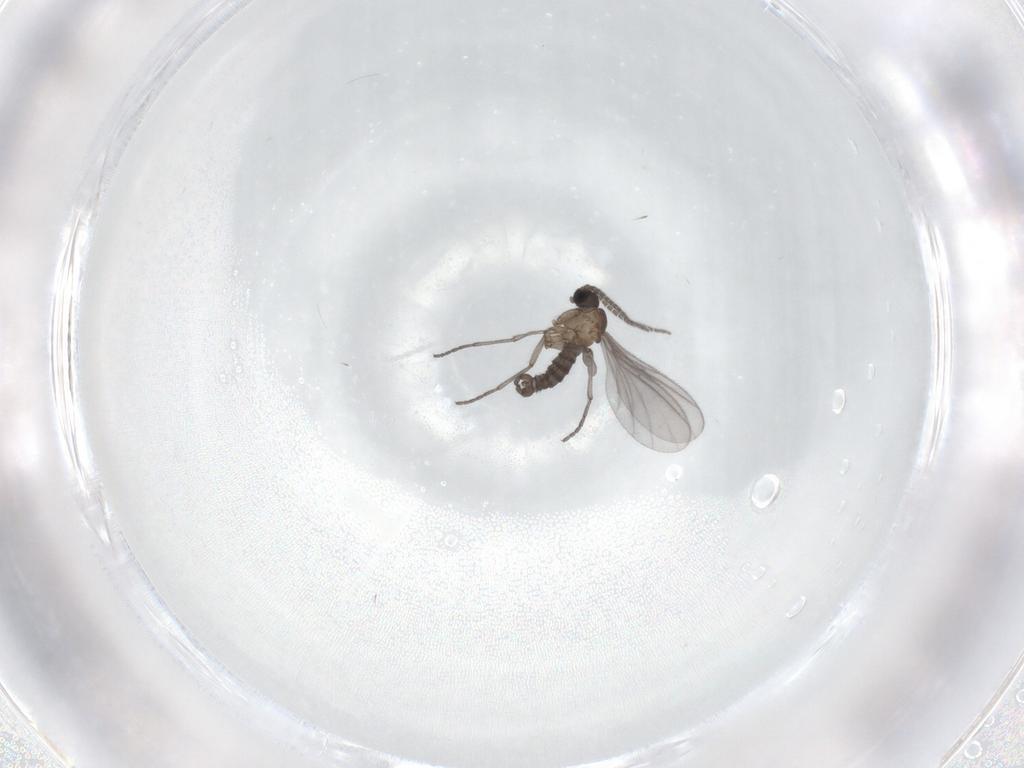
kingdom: Animalia
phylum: Arthropoda
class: Insecta
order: Diptera
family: Sciaridae
